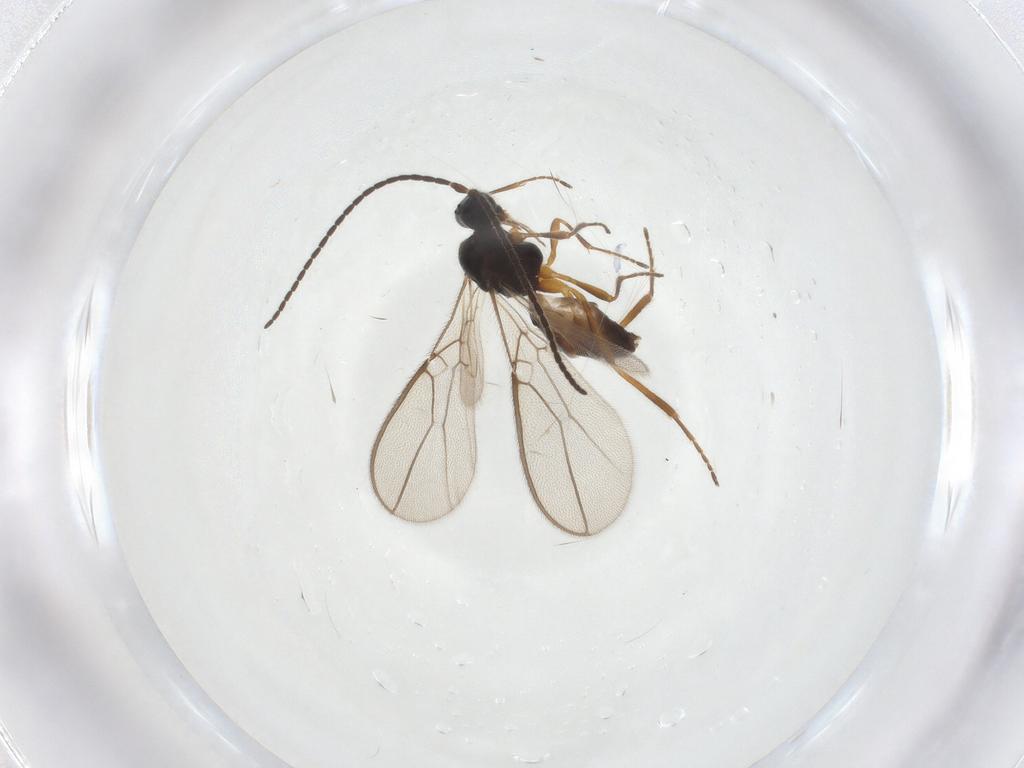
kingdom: Animalia
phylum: Arthropoda
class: Insecta
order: Hymenoptera
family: Braconidae
